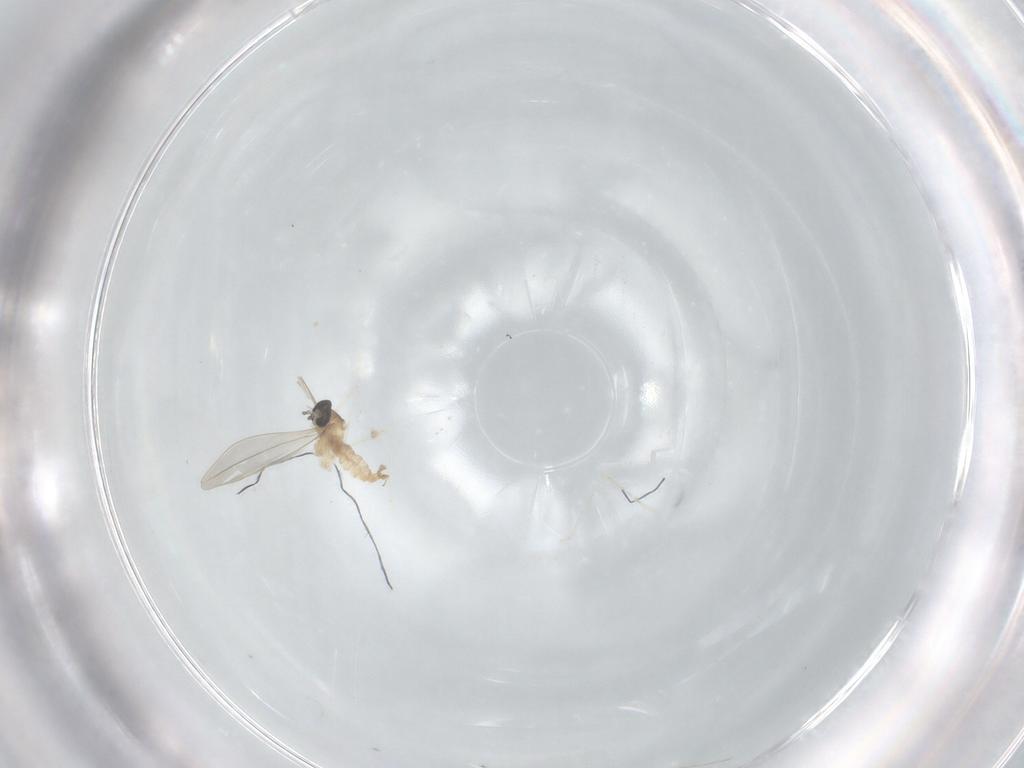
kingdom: Animalia
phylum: Arthropoda
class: Insecta
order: Diptera
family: Cecidomyiidae
